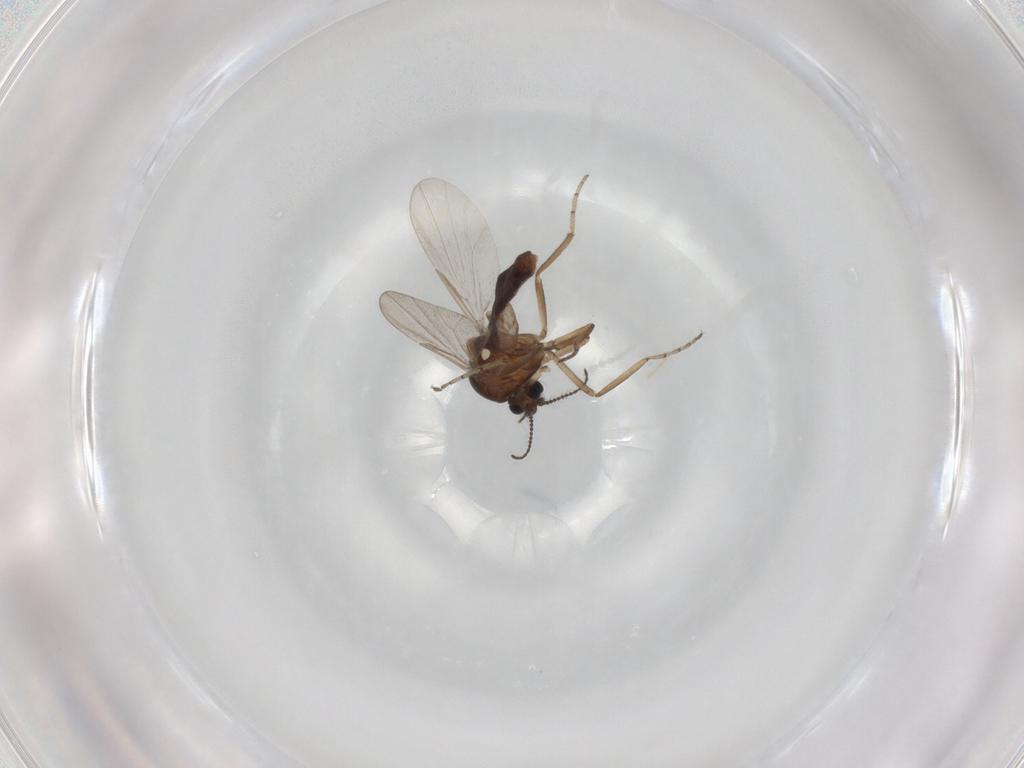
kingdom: Animalia
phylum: Arthropoda
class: Insecta
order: Diptera
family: Ceratopogonidae
